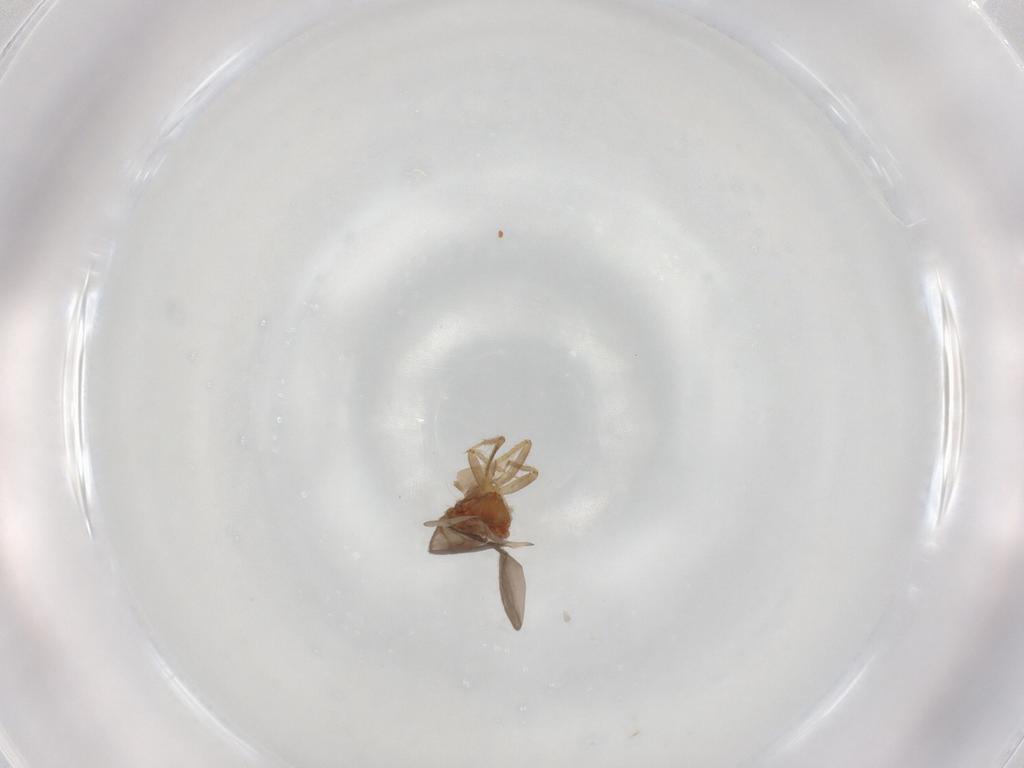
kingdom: Animalia
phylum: Arthropoda
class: Insecta
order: Hemiptera
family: Ceratocombidae
